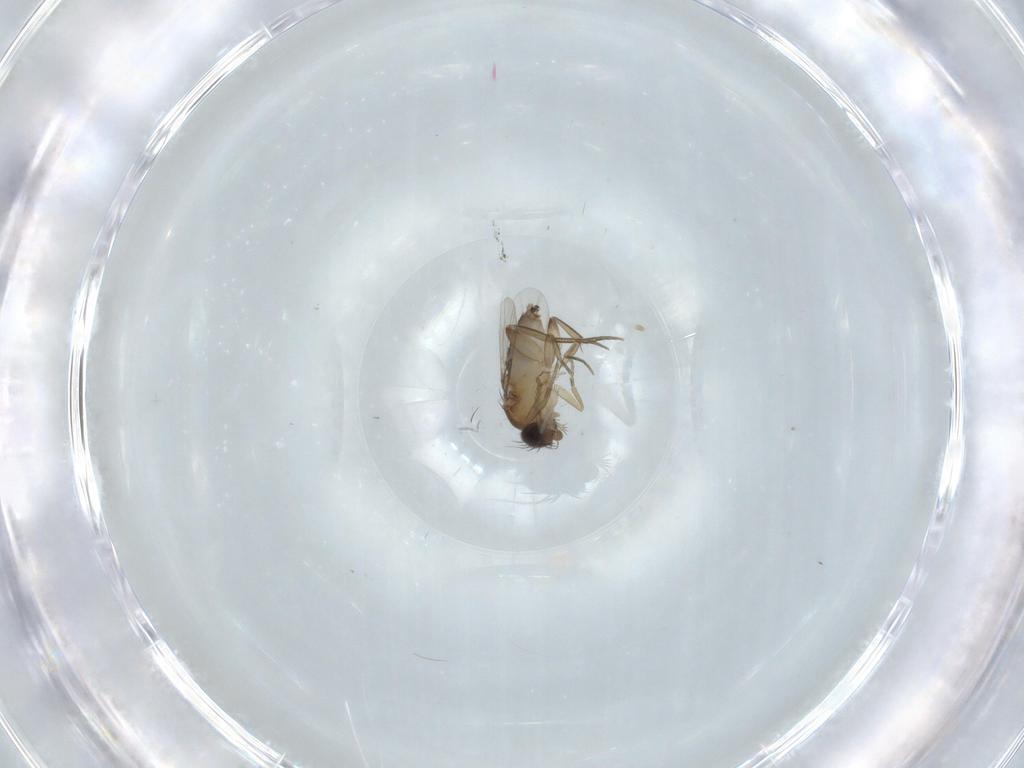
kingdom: Animalia
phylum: Arthropoda
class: Insecta
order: Diptera
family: Phoridae
